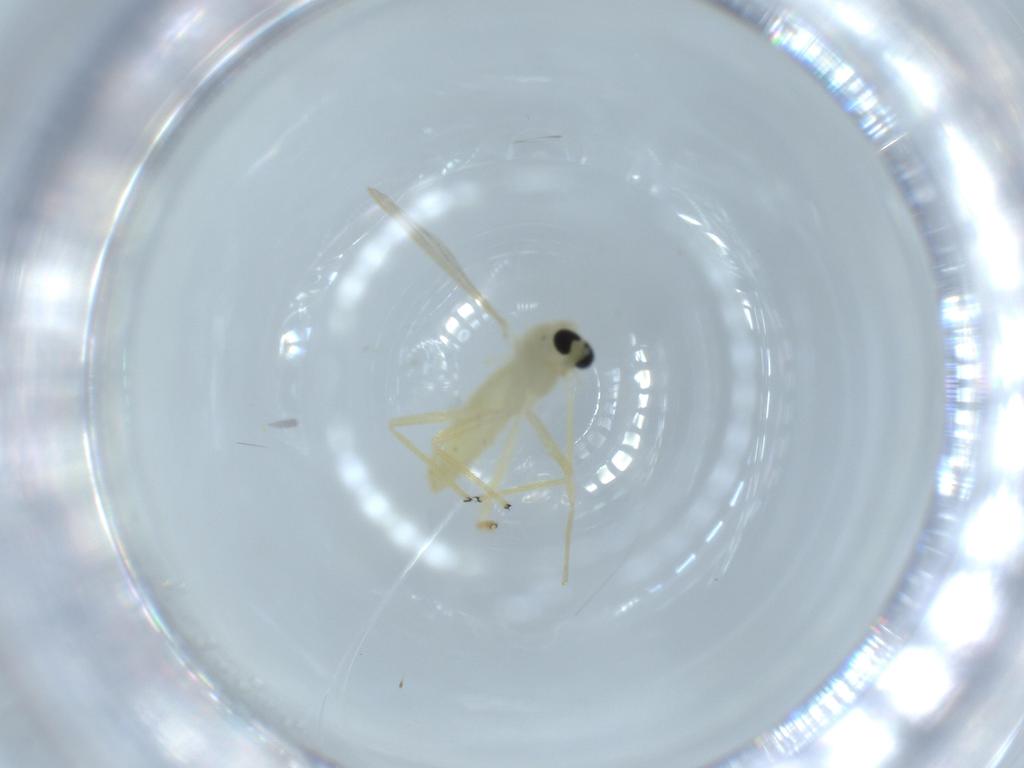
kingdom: Animalia
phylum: Arthropoda
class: Insecta
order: Diptera
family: Chironomidae
